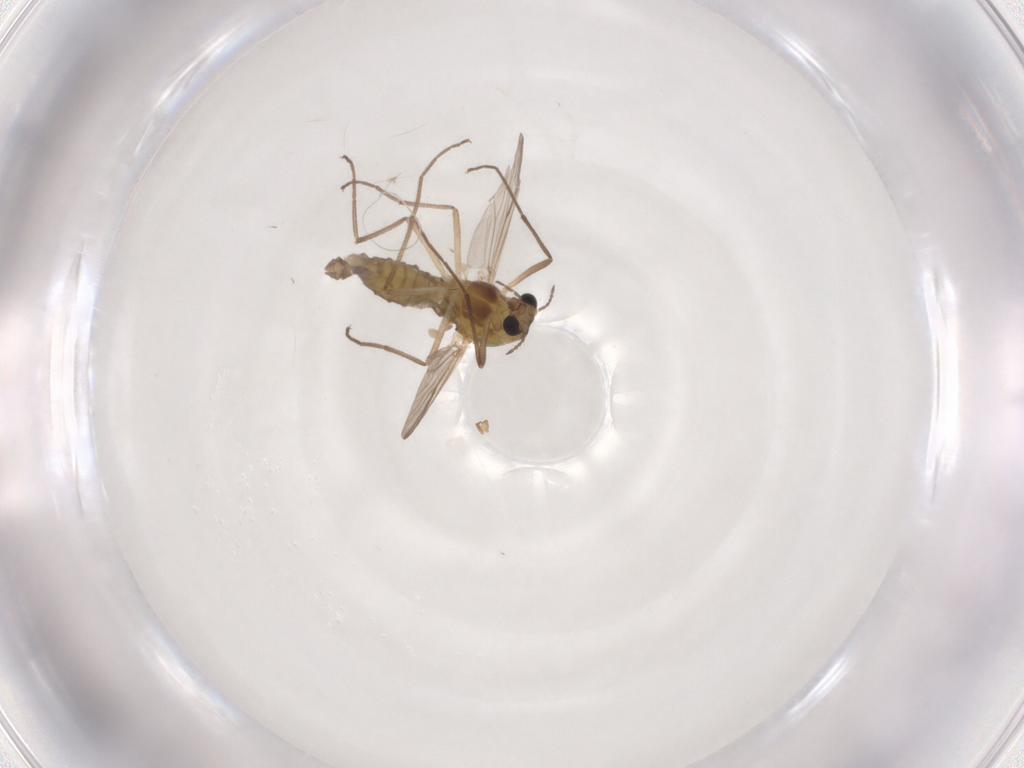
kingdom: Animalia
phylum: Arthropoda
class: Insecta
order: Diptera
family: Chironomidae
